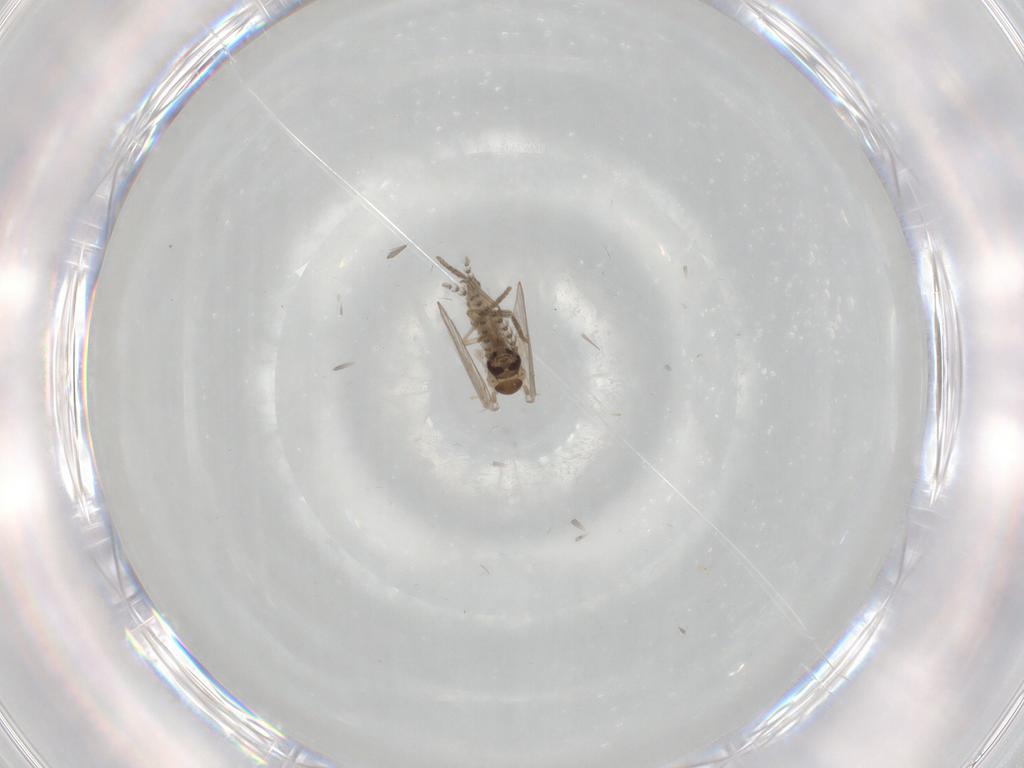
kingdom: Animalia
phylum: Arthropoda
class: Insecta
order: Diptera
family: Psychodidae
